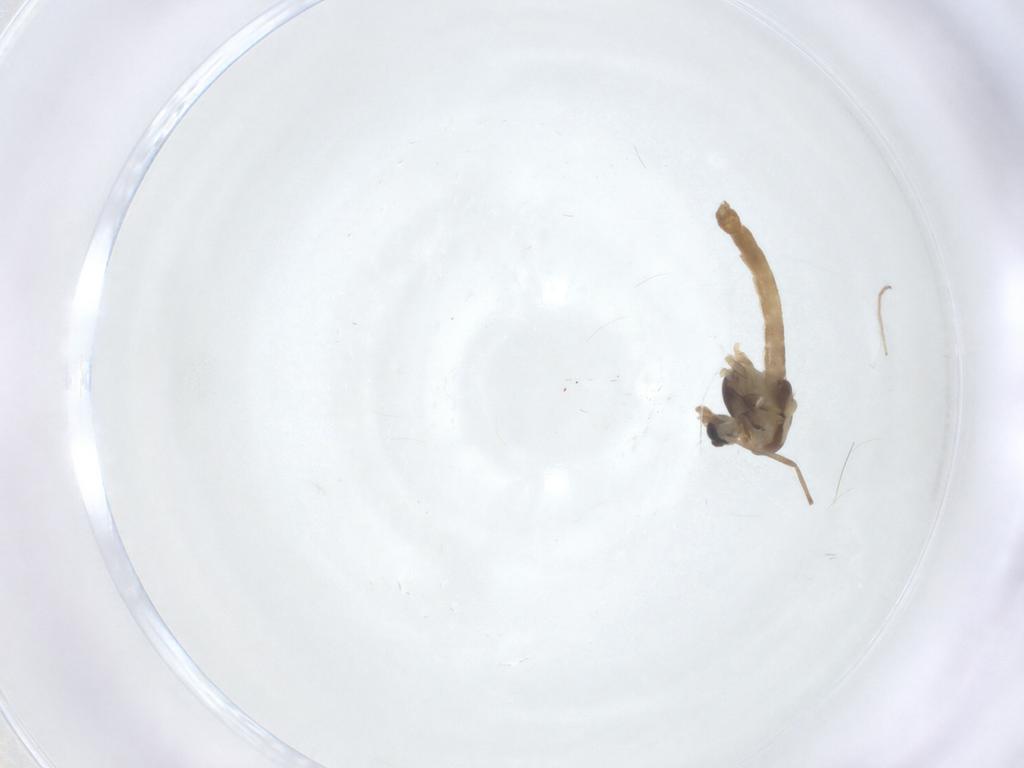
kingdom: Animalia
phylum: Arthropoda
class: Insecta
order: Diptera
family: Chironomidae
